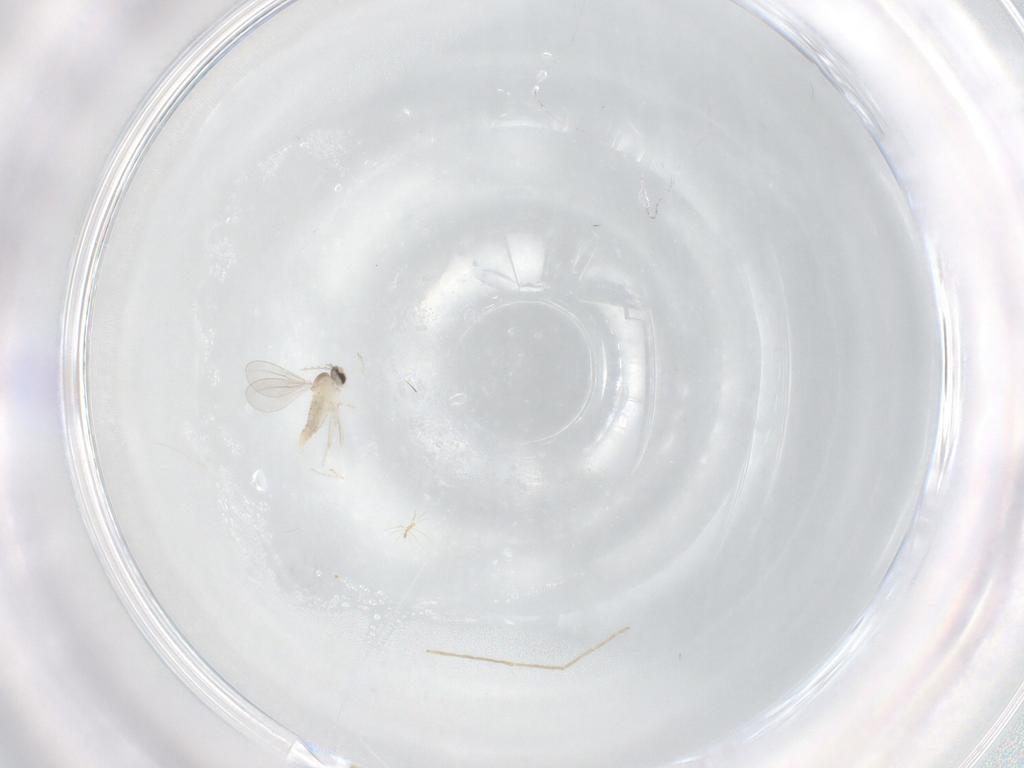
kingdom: Animalia
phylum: Arthropoda
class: Insecta
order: Diptera
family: Cecidomyiidae
